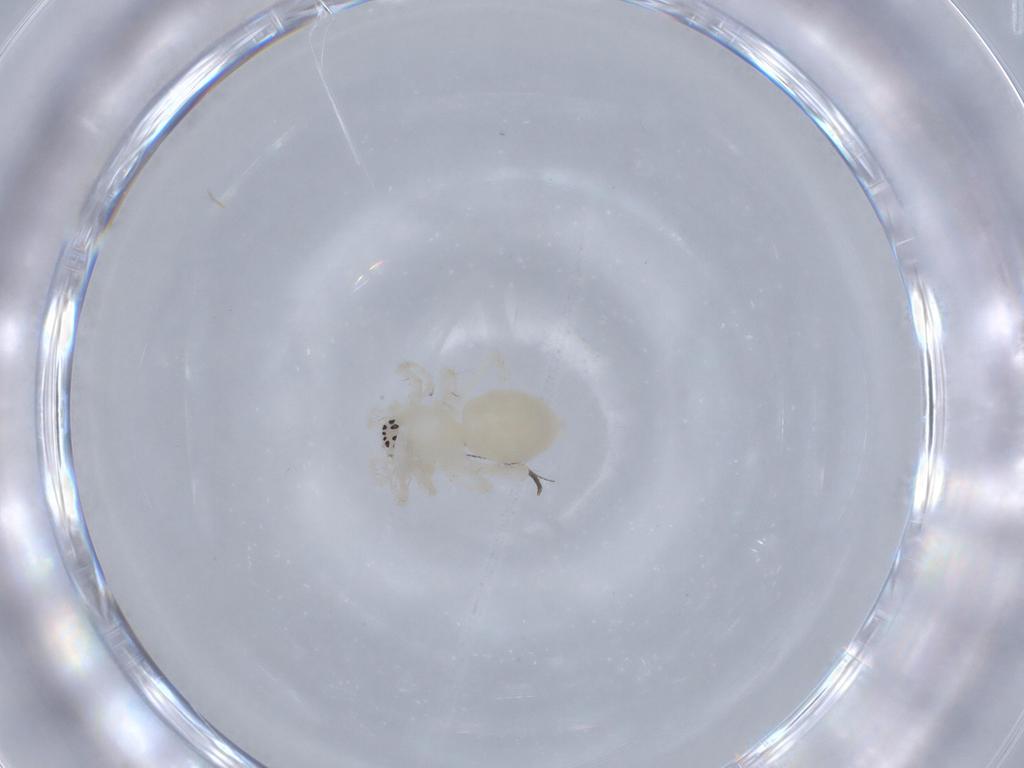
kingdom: Animalia
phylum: Arthropoda
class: Arachnida
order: Araneae
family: Anyphaenidae
